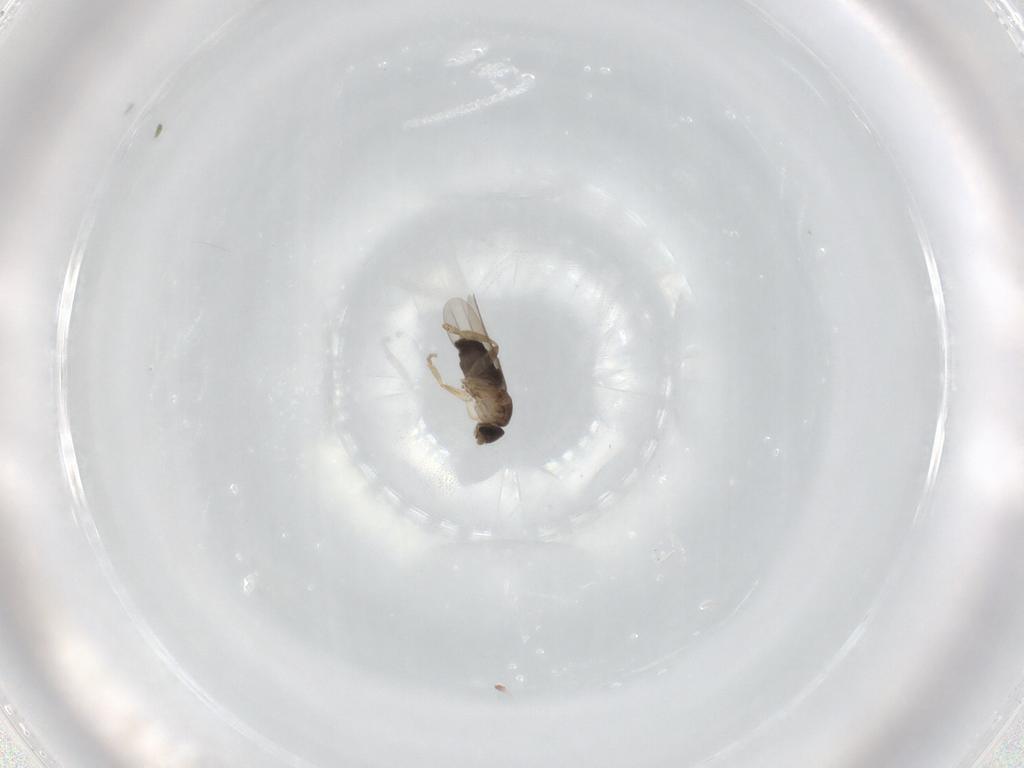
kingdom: Animalia
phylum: Arthropoda
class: Insecta
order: Diptera
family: Phoridae
